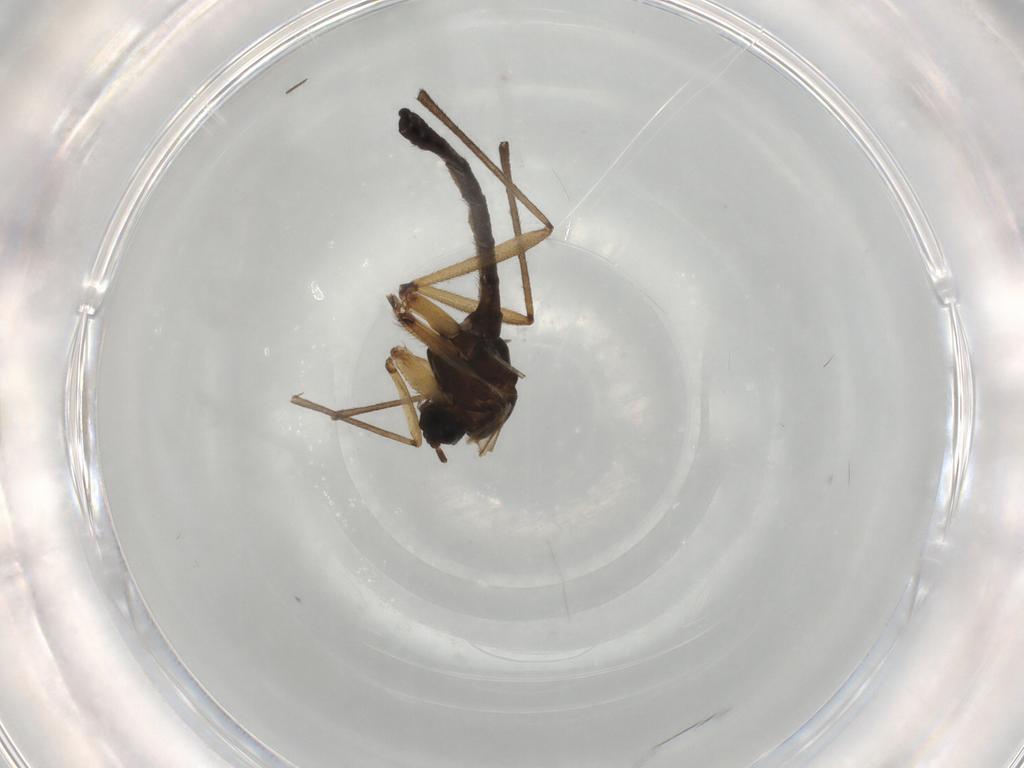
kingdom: Animalia
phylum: Arthropoda
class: Insecta
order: Diptera
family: Sciaridae
